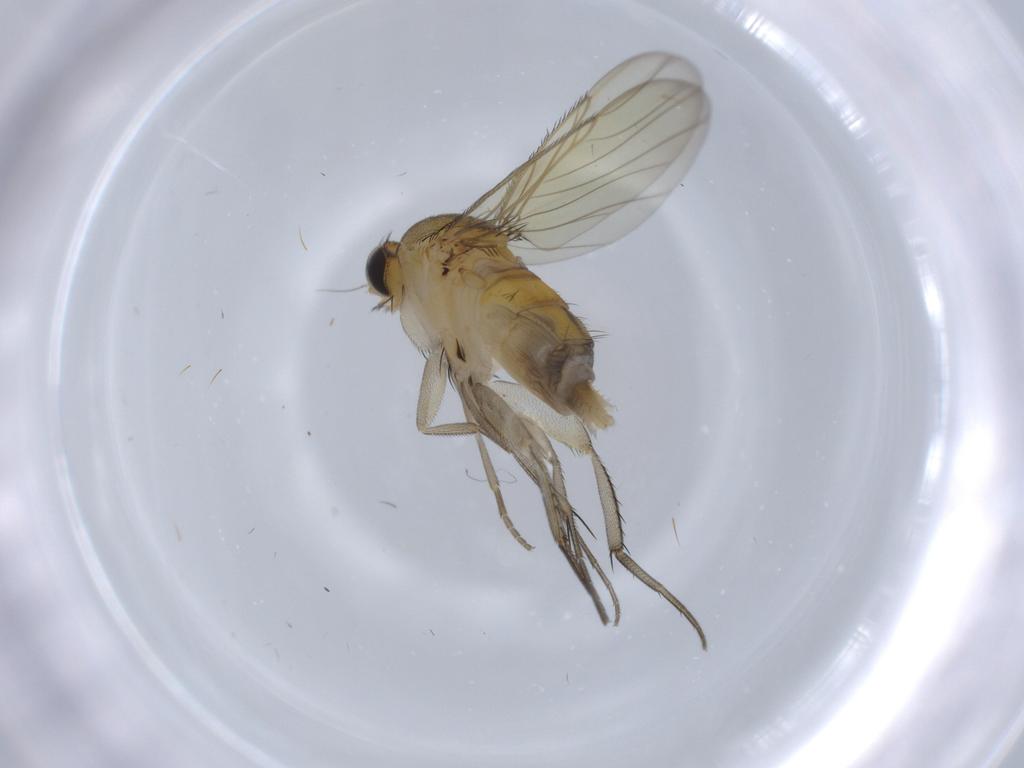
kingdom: Animalia
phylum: Arthropoda
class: Insecta
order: Diptera
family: Phoridae
